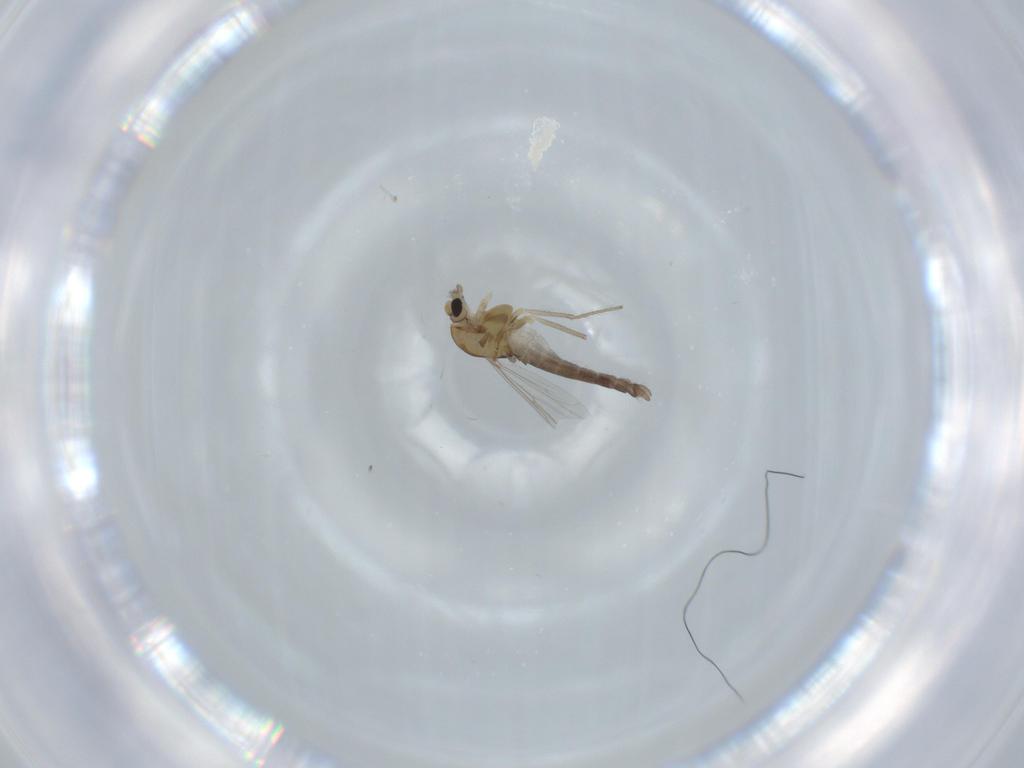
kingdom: Animalia
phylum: Arthropoda
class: Insecta
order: Diptera
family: Chironomidae
